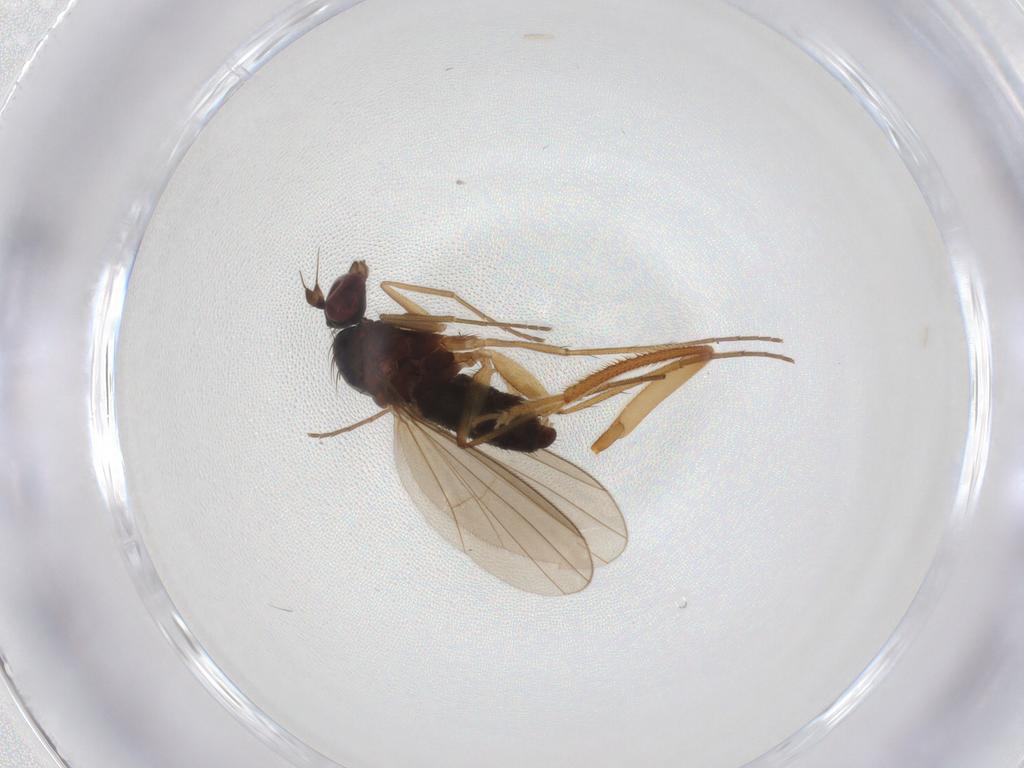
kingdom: Animalia
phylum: Arthropoda
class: Insecta
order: Diptera
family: Dolichopodidae
